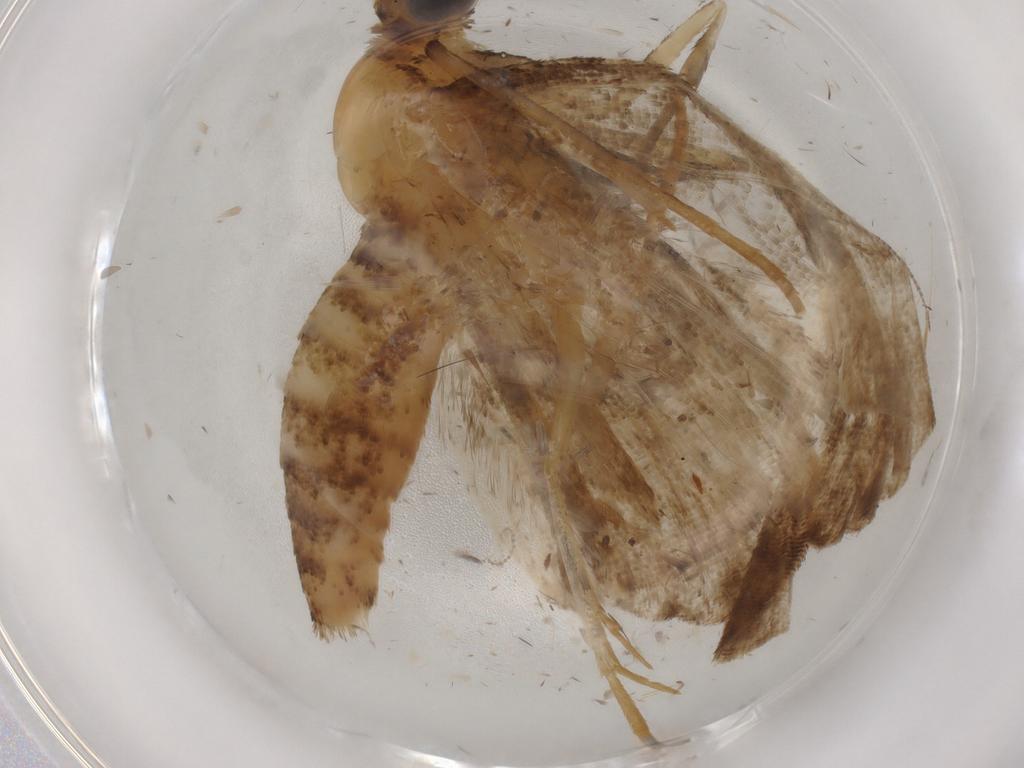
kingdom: Animalia
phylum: Arthropoda
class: Insecta
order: Lepidoptera
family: Geometridae
